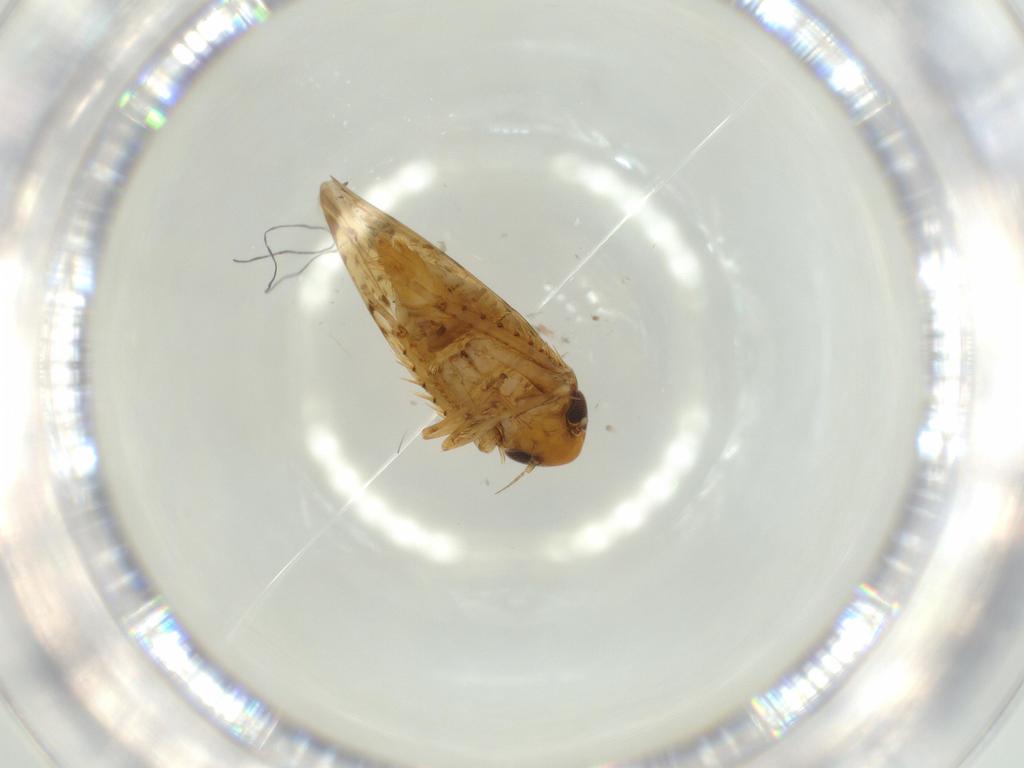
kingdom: Animalia
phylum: Arthropoda
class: Insecta
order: Hemiptera
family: Cicadellidae
